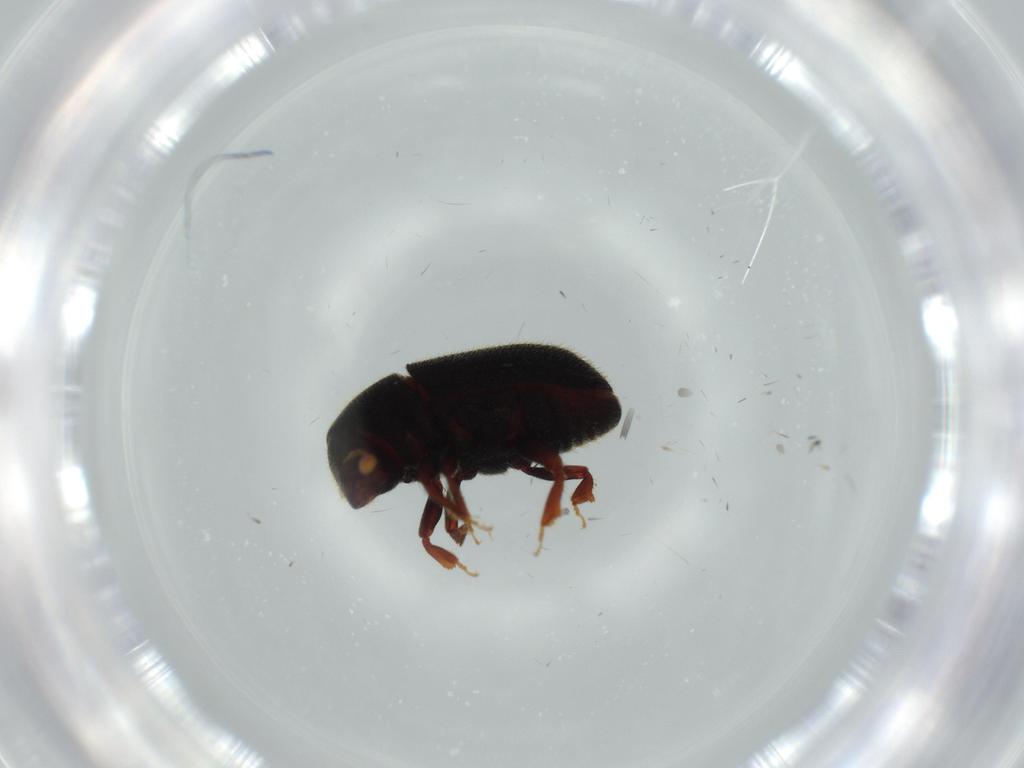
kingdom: Animalia
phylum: Arthropoda
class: Insecta
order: Coleoptera
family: Chrysomelidae
